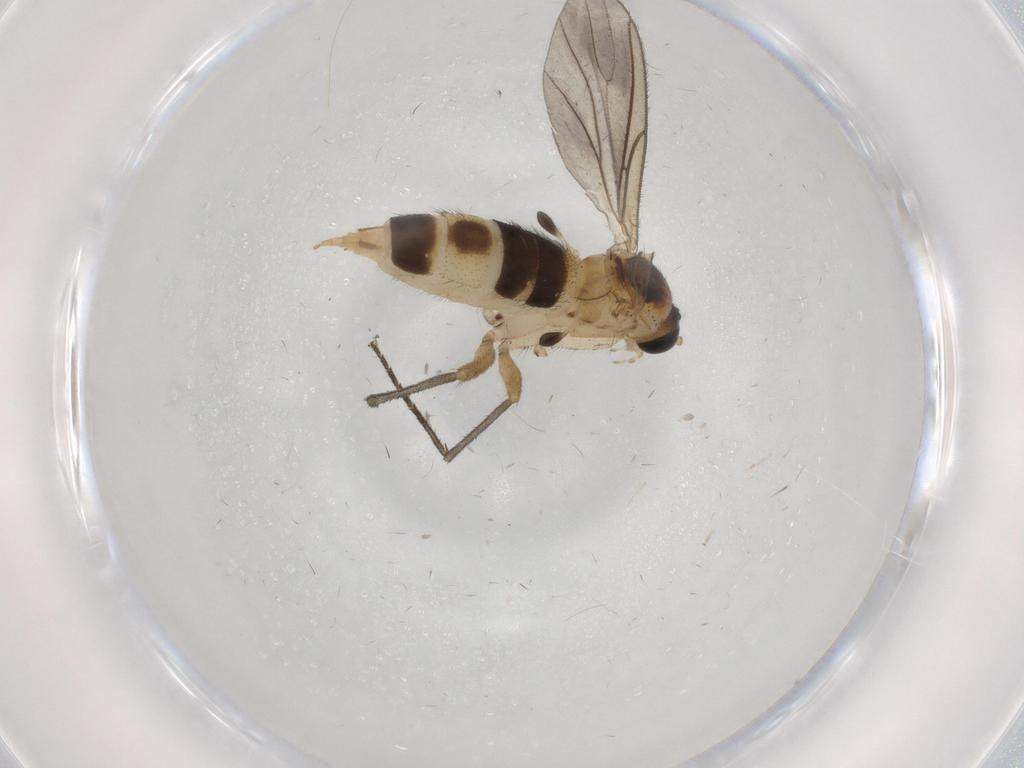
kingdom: Animalia
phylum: Arthropoda
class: Insecta
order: Diptera
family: Sciaridae
